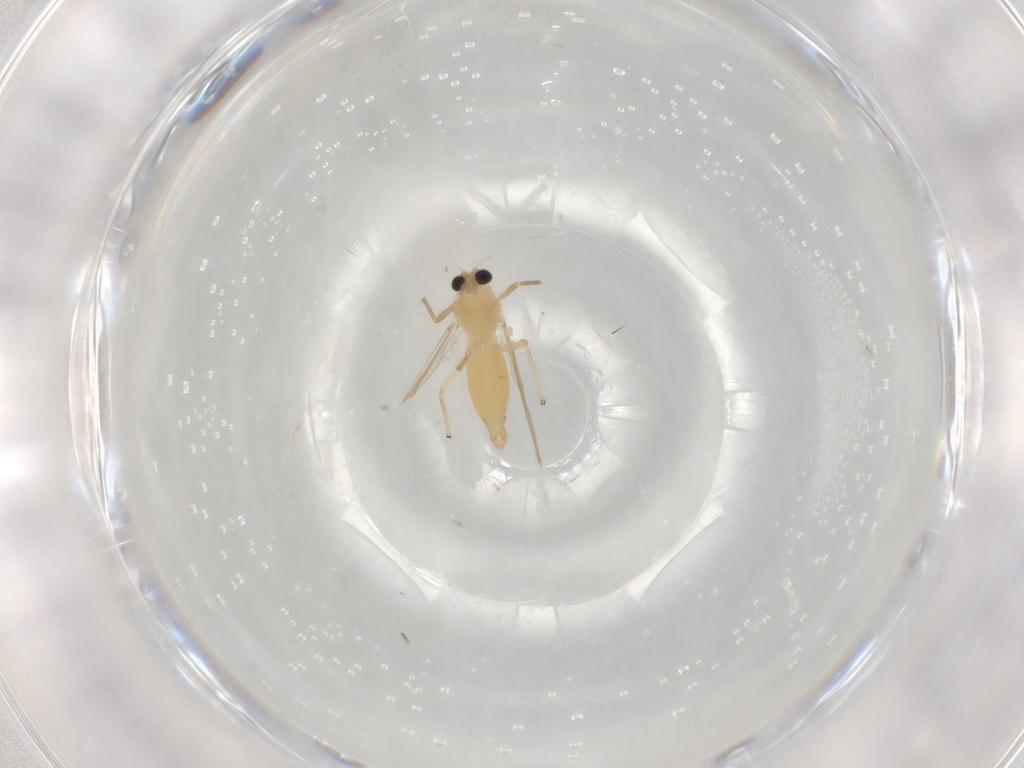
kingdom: Animalia
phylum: Arthropoda
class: Insecta
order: Diptera
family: Chironomidae
